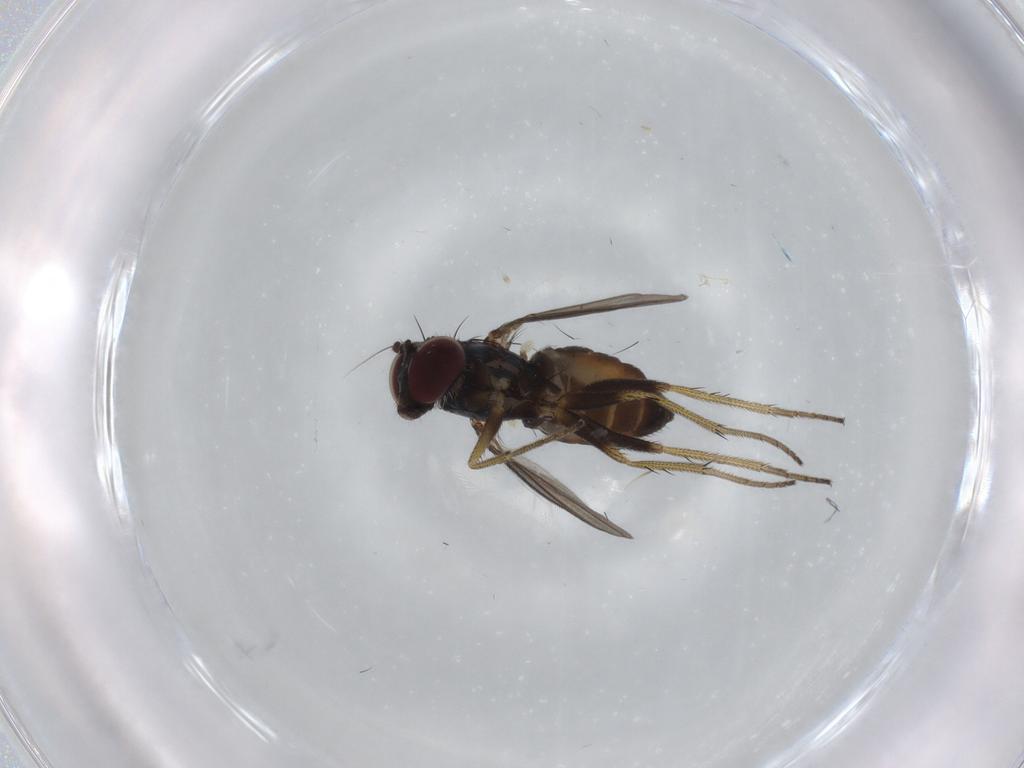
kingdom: Animalia
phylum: Arthropoda
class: Insecta
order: Diptera
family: Dolichopodidae
